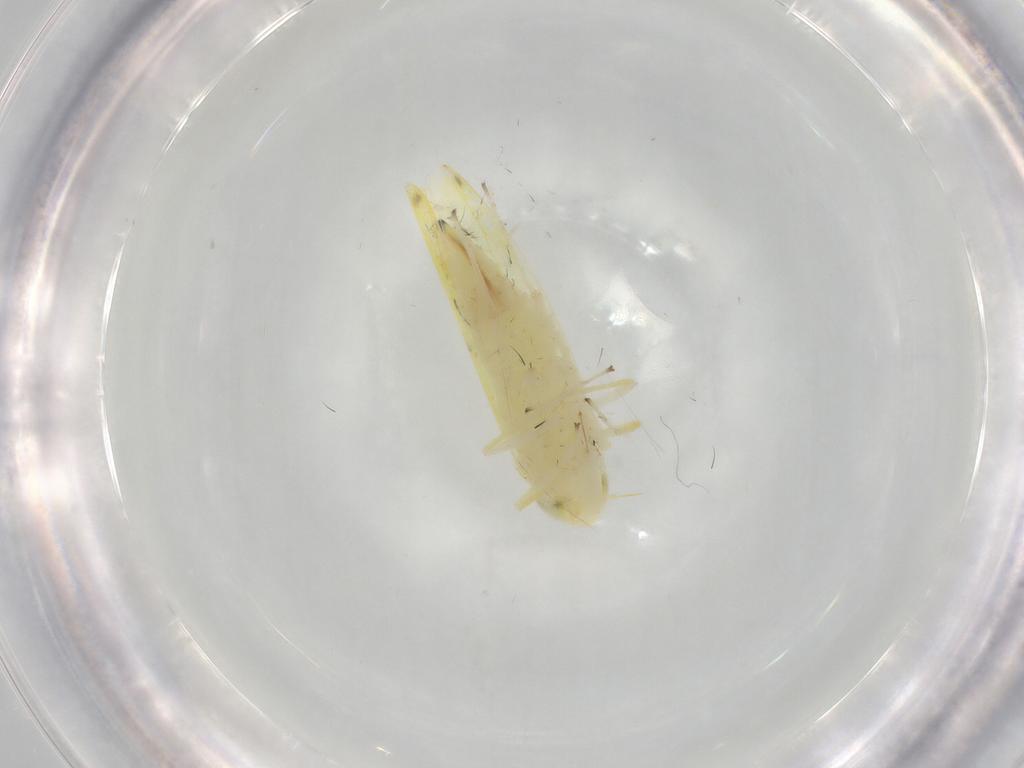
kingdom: Animalia
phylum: Arthropoda
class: Insecta
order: Hemiptera
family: Cicadellidae
